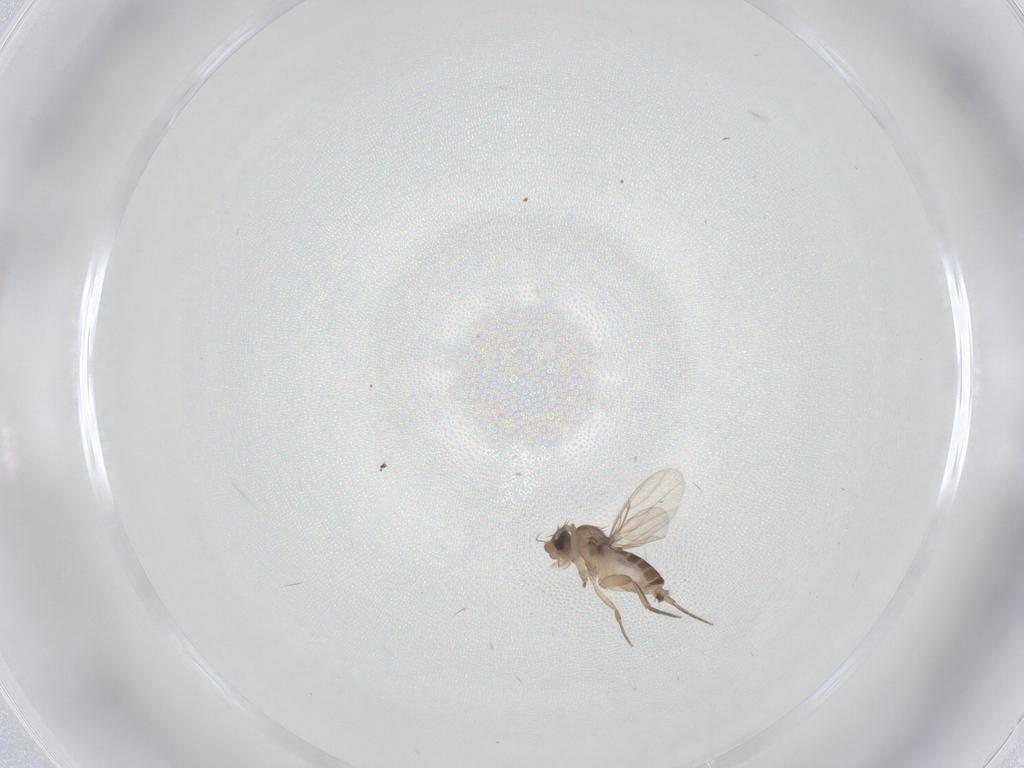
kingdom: Animalia
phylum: Arthropoda
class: Insecta
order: Diptera
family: Phoridae
